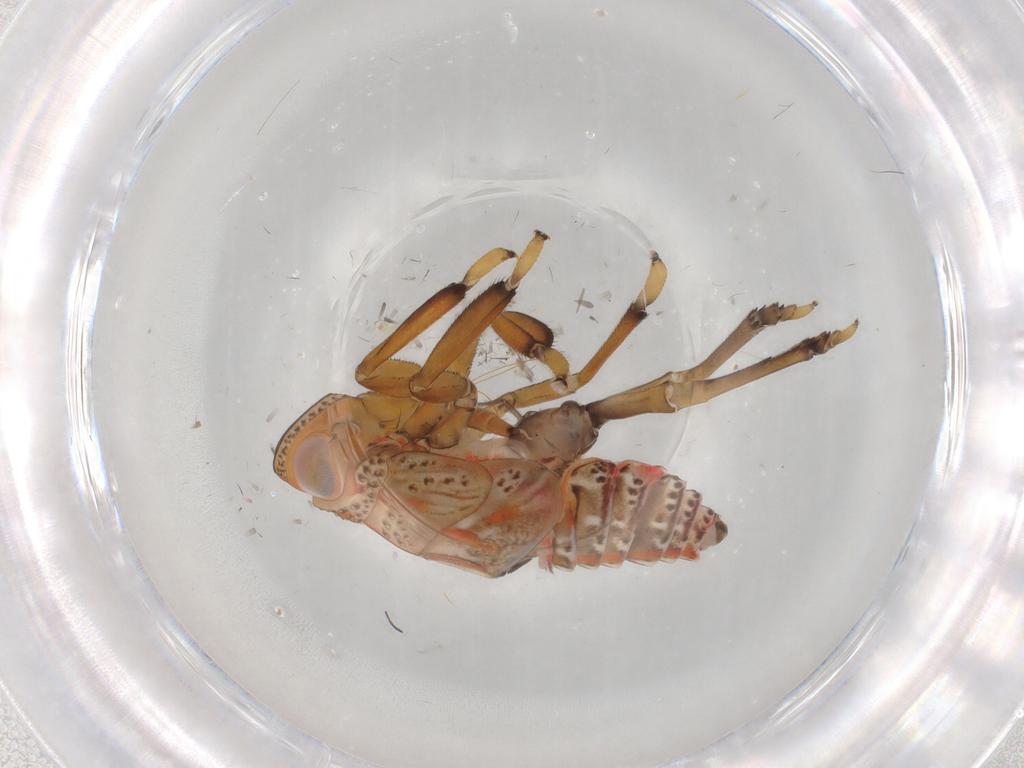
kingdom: Animalia
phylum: Arthropoda
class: Insecta
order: Hemiptera
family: Issidae
